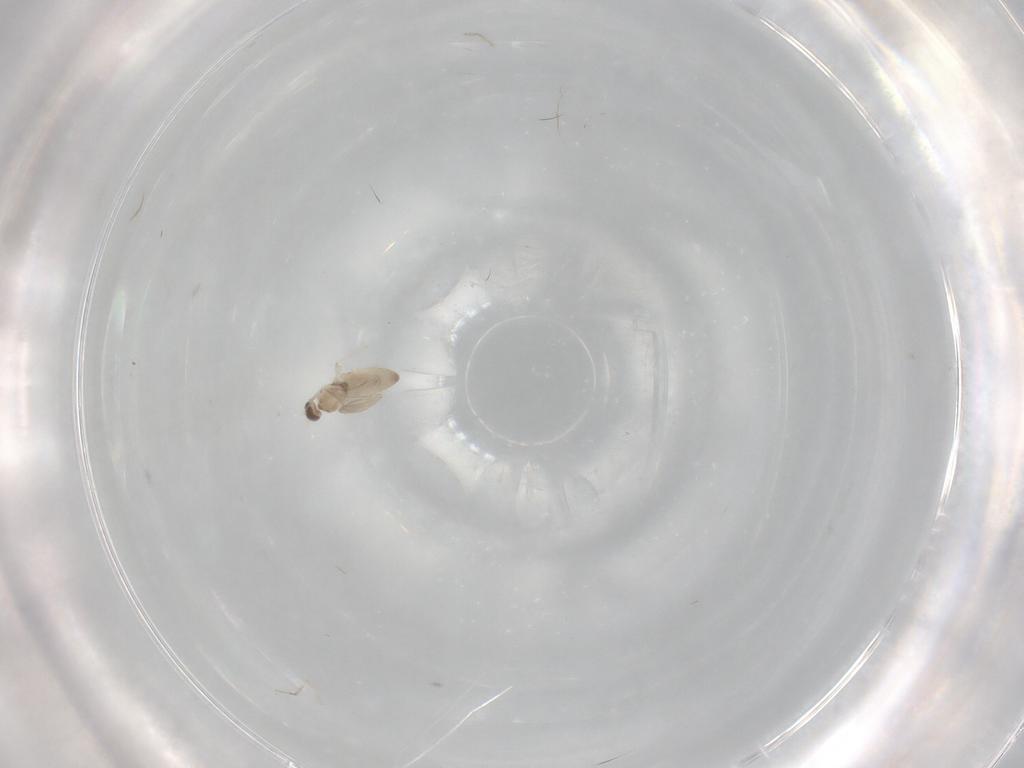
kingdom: Animalia
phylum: Arthropoda
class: Insecta
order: Diptera
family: Cecidomyiidae
